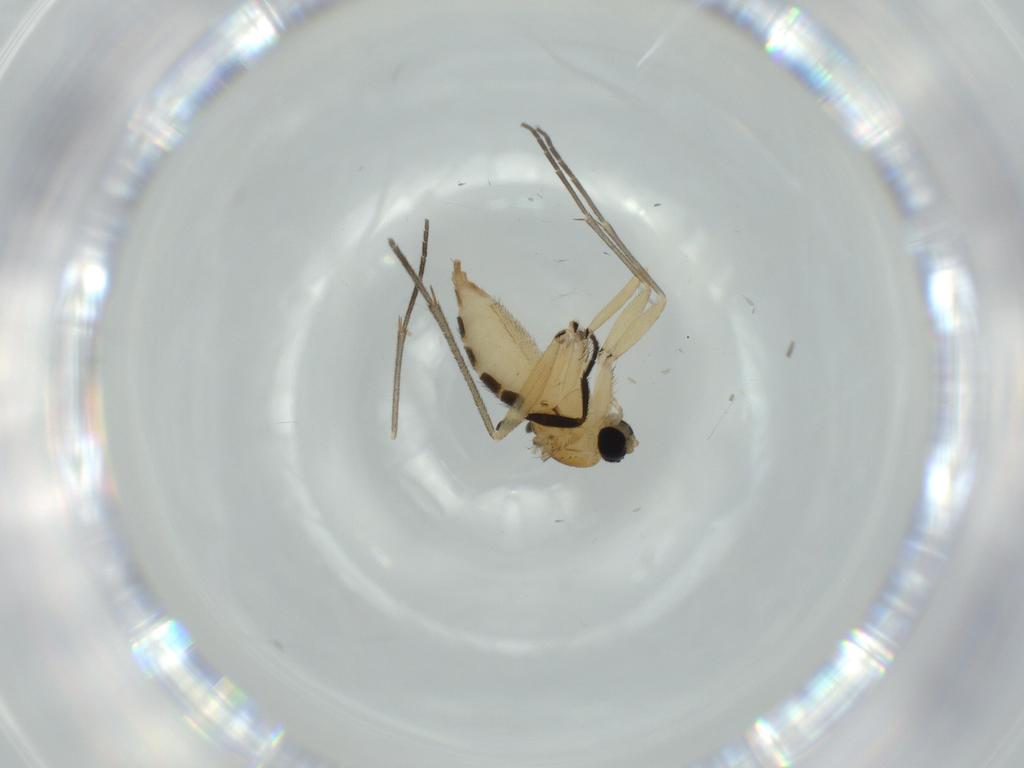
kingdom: Animalia
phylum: Arthropoda
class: Insecta
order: Diptera
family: Sciaridae
